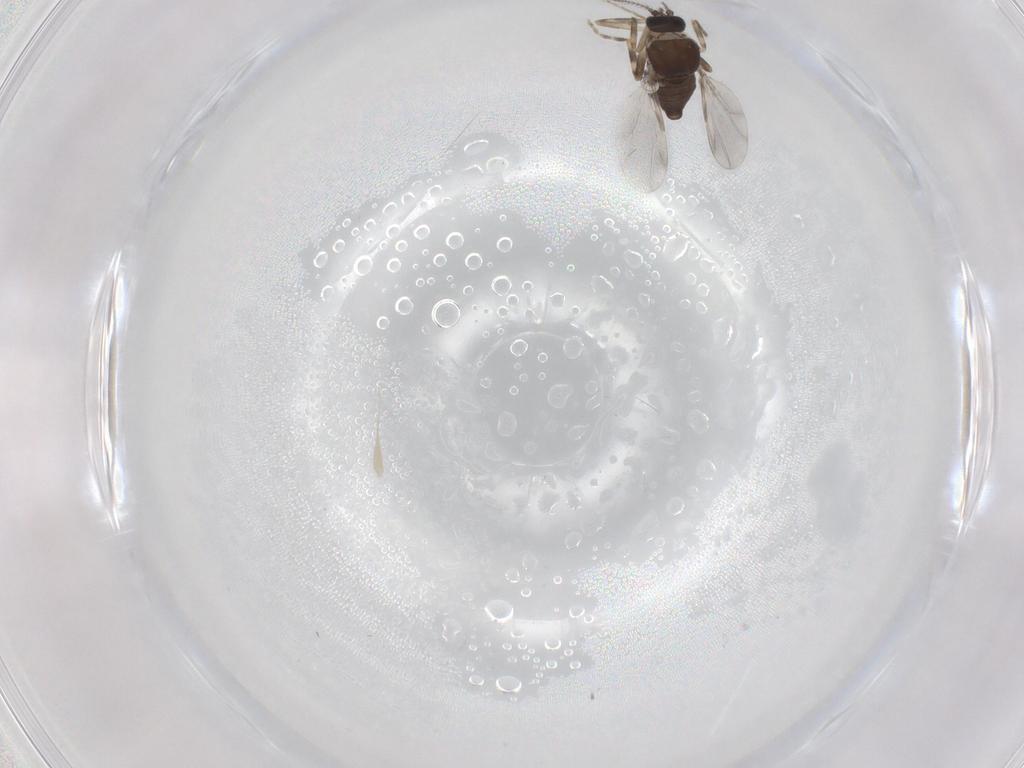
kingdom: Animalia
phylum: Arthropoda
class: Insecta
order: Diptera
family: Ceratopogonidae
